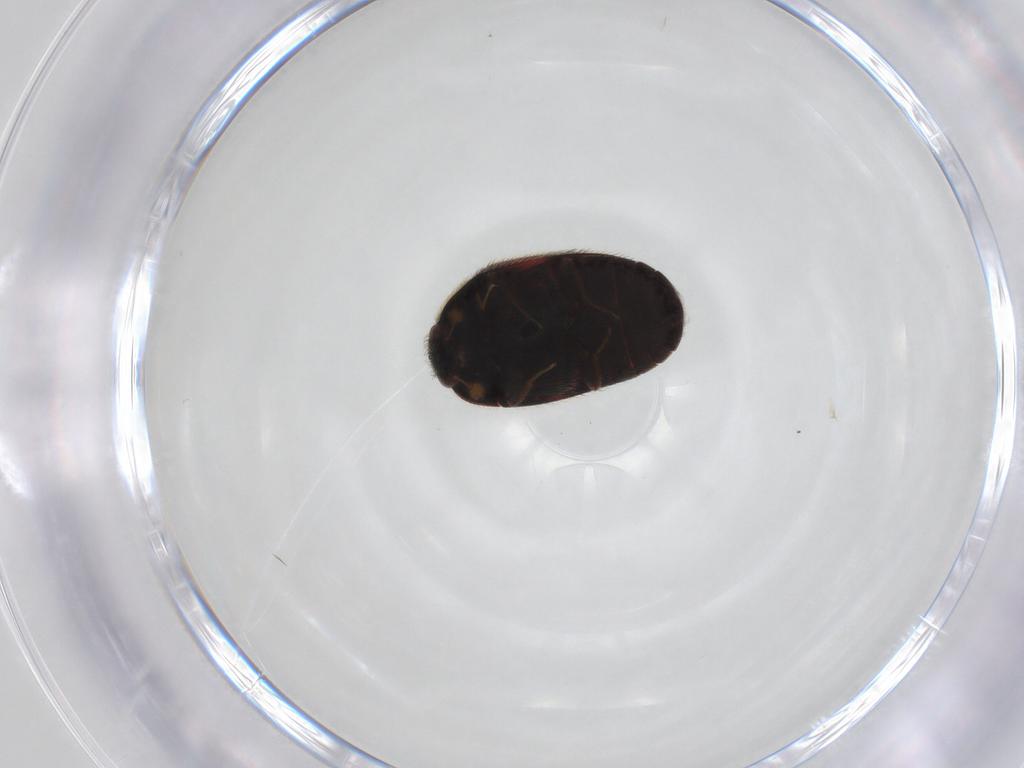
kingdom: Animalia
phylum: Arthropoda
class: Insecta
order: Coleoptera
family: Dermestidae
